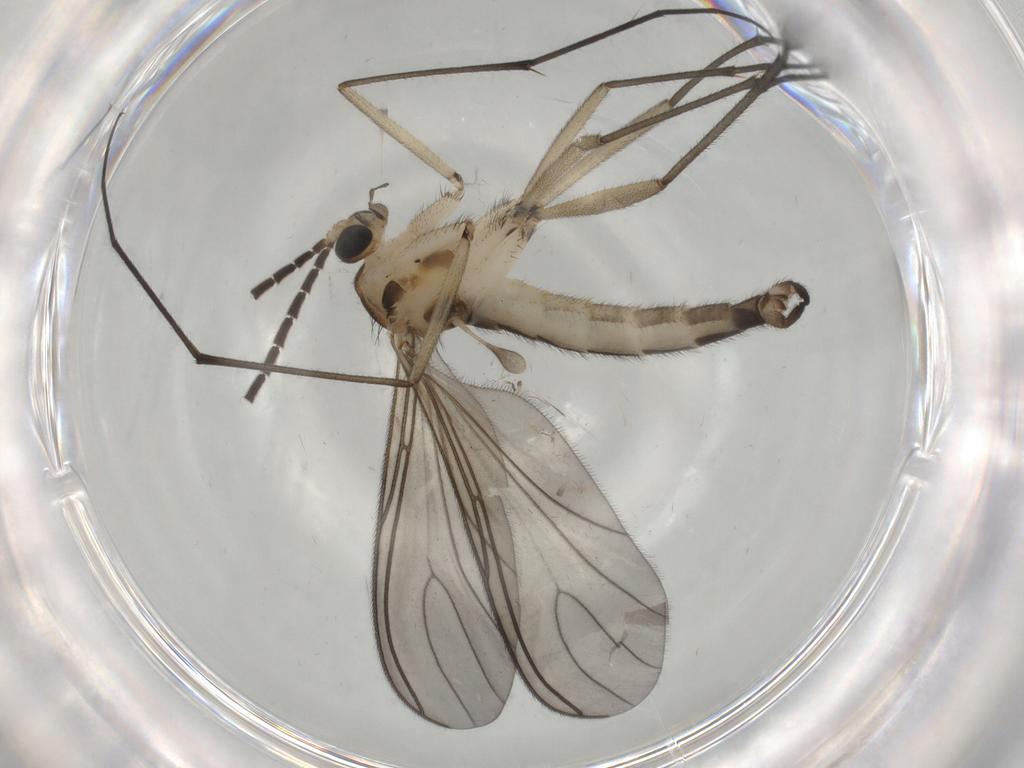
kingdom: Animalia
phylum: Arthropoda
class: Insecta
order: Diptera
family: Sciaridae
